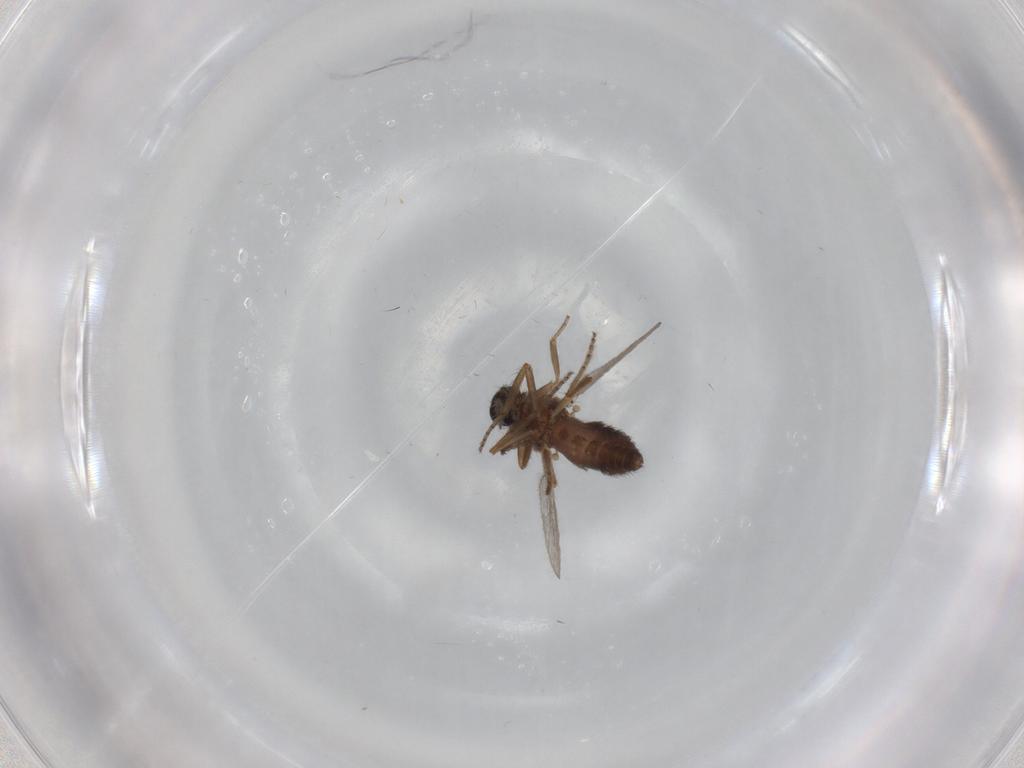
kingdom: Animalia
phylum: Arthropoda
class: Insecta
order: Diptera
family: Ceratopogonidae
